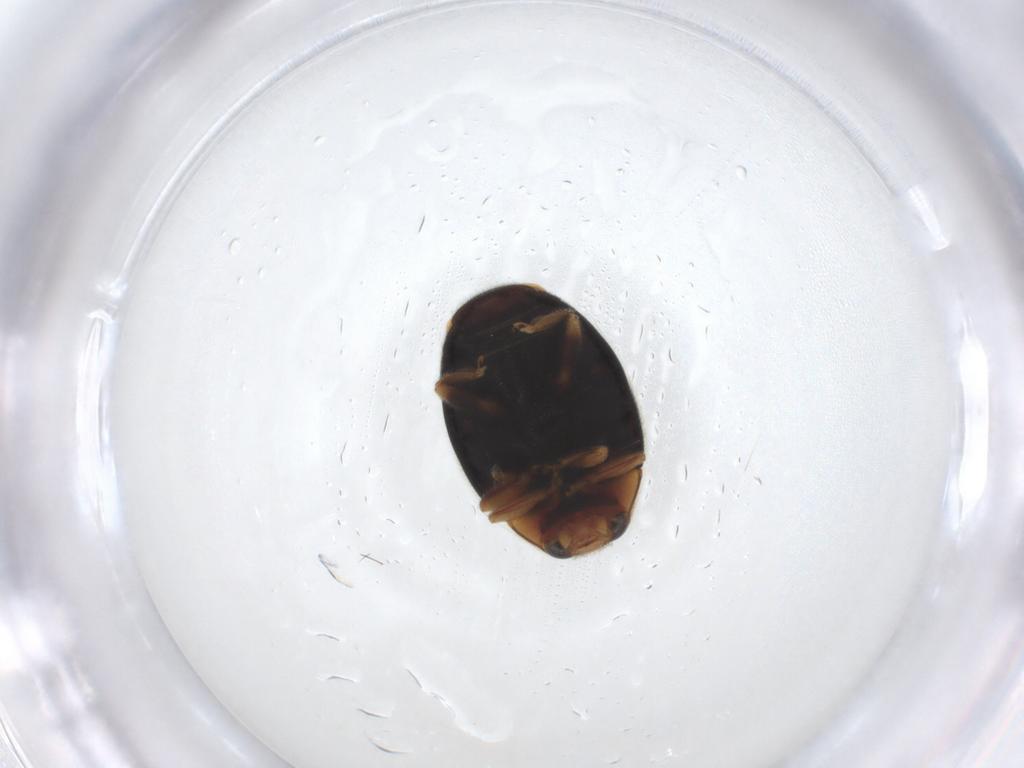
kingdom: Animalia
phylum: Arthropoda
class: Insecta
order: Coleoptera
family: Coccinellidae
